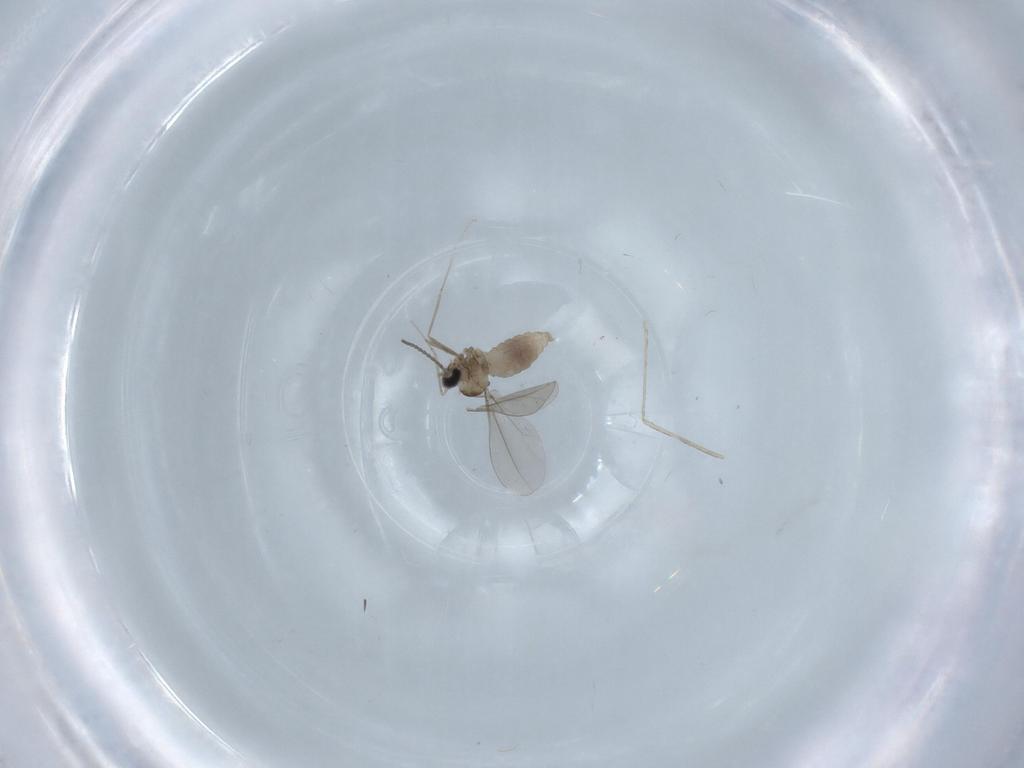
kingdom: Animalia
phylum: Arthropoda
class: Insecta
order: Diptera
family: Cecidomyiidae
